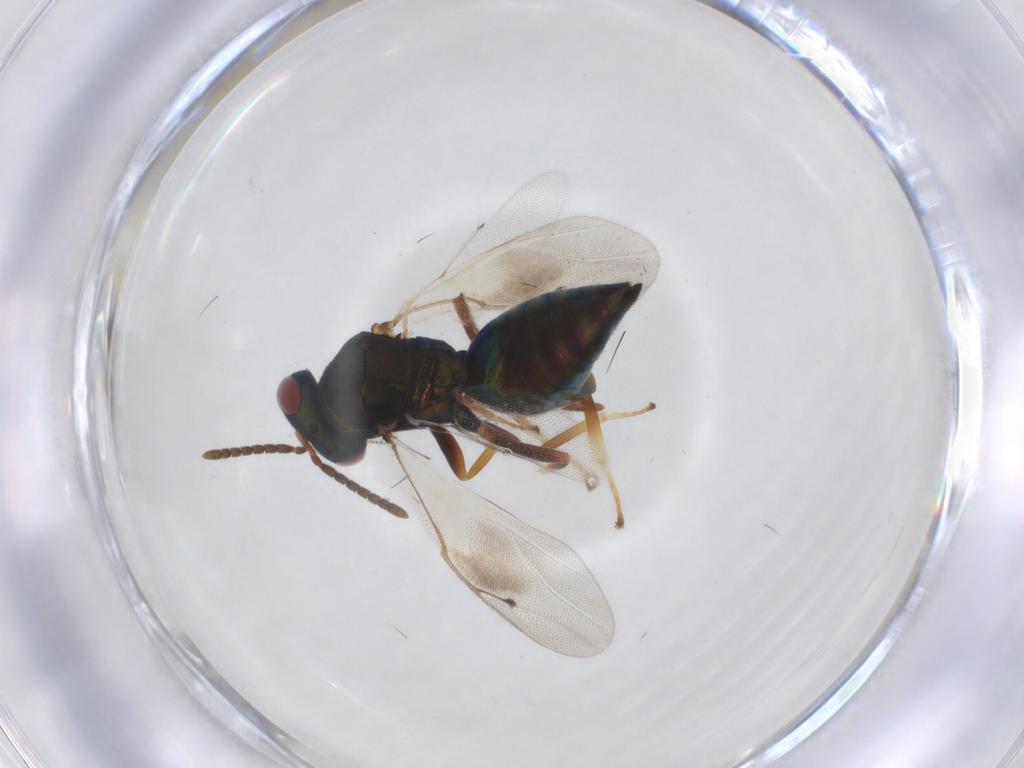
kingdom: Animalia
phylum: Arthropoda
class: Insecta
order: Hymenoptera
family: Pteromalidae
